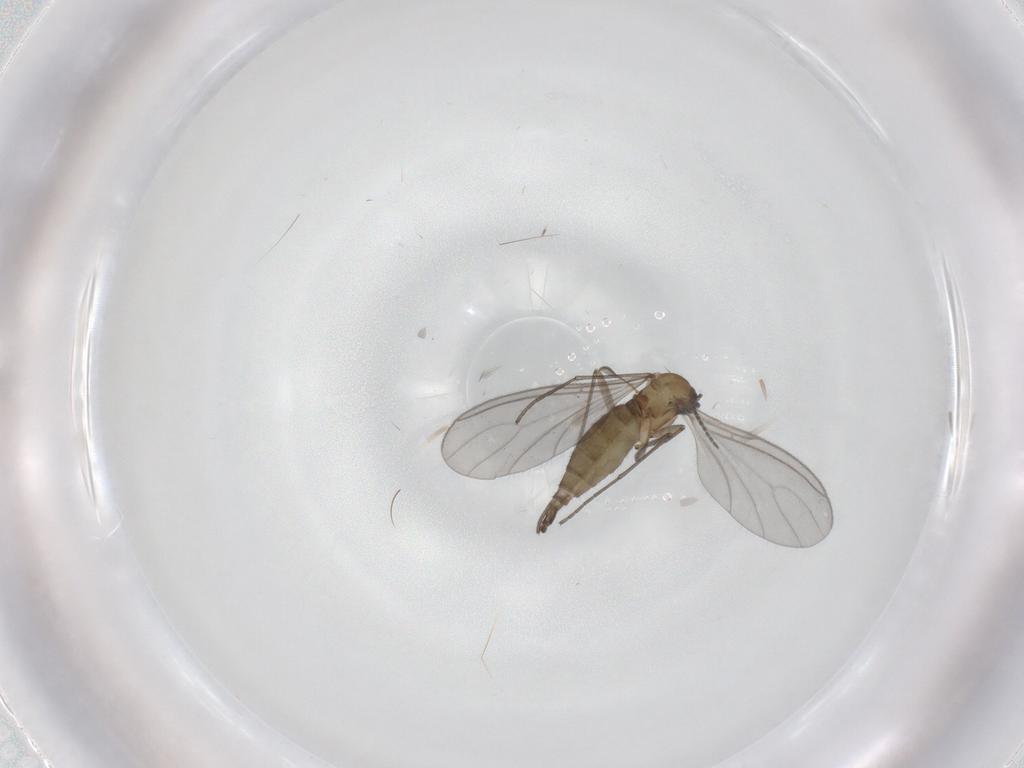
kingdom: Animalia
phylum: Arthropoda
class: Insecta
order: Diptera
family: Sciaridae
